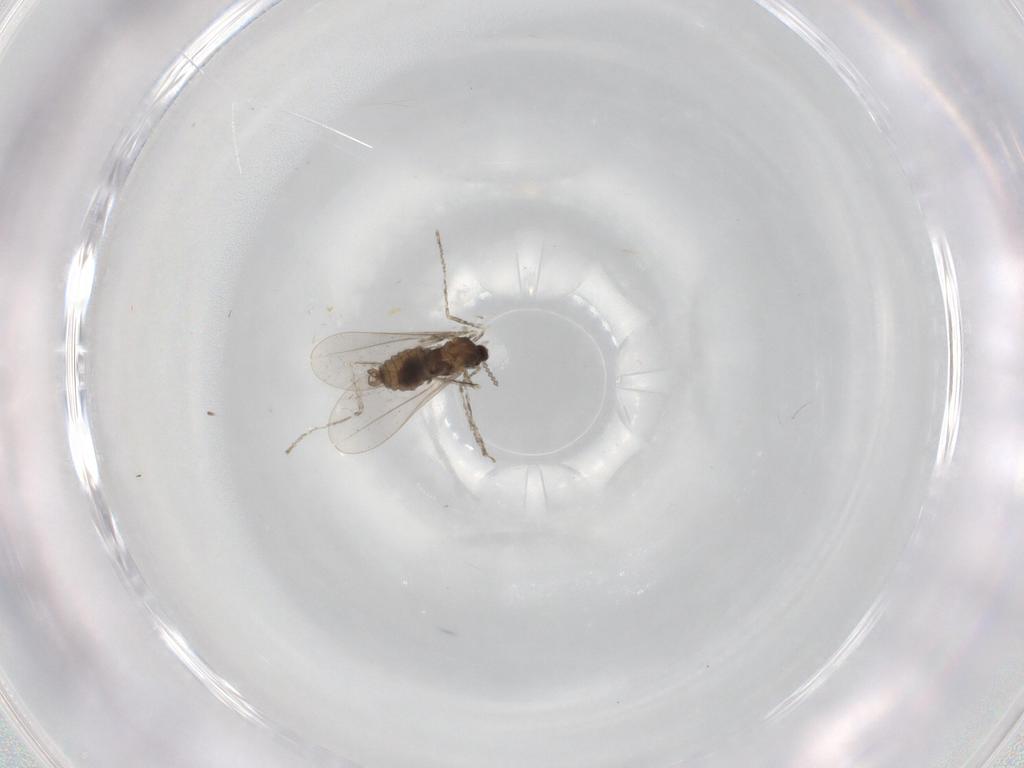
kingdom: Animalia
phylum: Arthropoda
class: Insecta
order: Diptera
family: Cecidomyiidae
